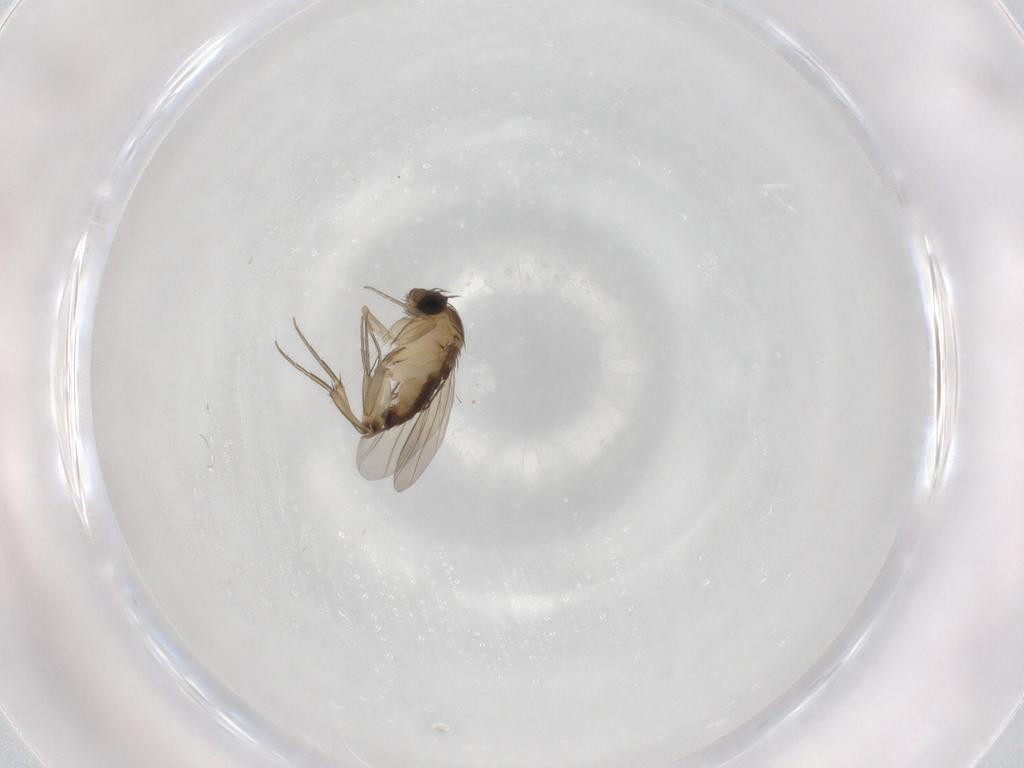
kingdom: Animalia
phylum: Arthropoda
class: Insecta
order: Diptera
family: Phoridae
